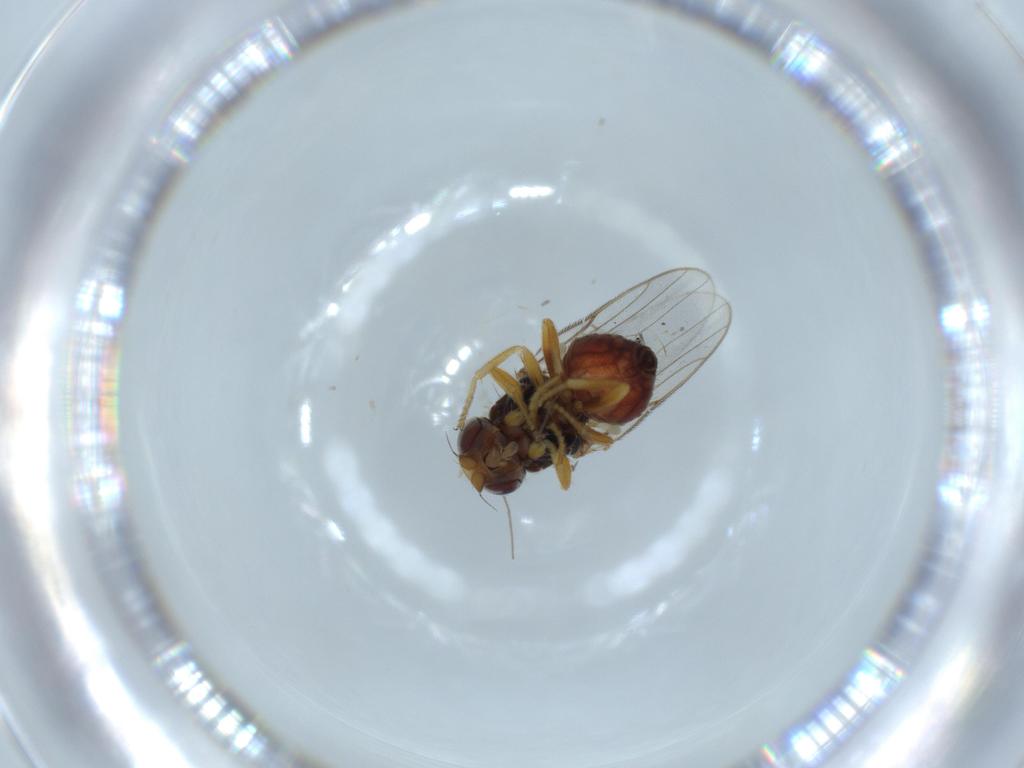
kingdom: Animalia
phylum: Arthropoda
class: Insecta
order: Diptera
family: Chloropidae
